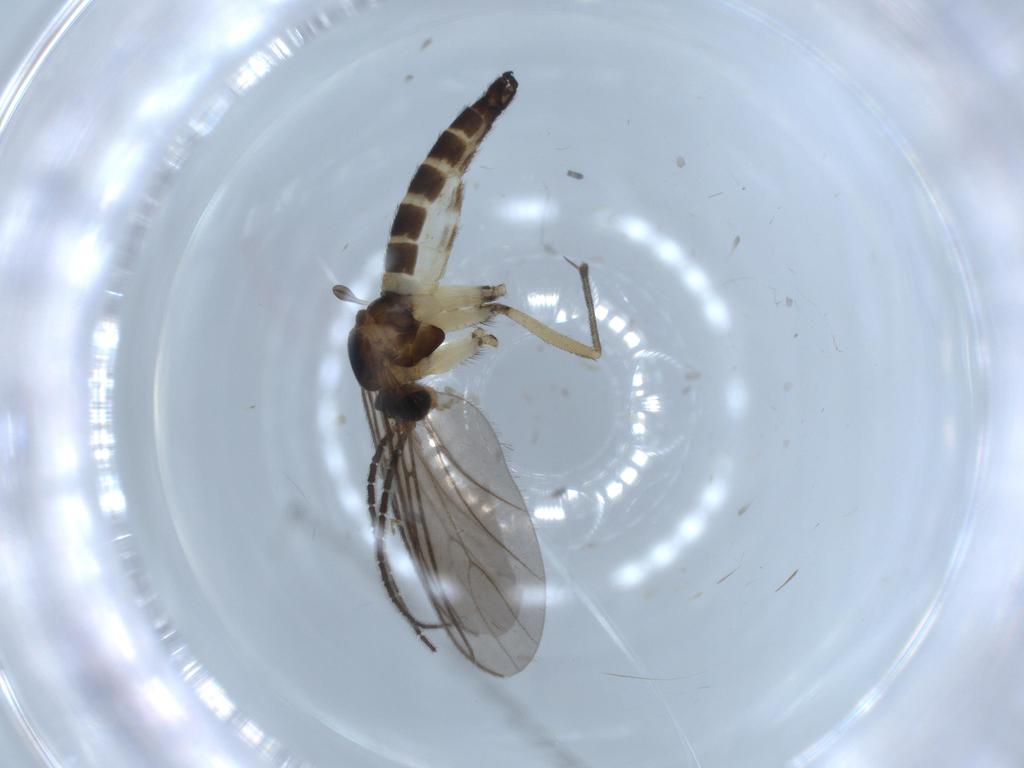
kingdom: Animalia
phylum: Arthropoda
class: Insecta
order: Diptera
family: Sciaridae
